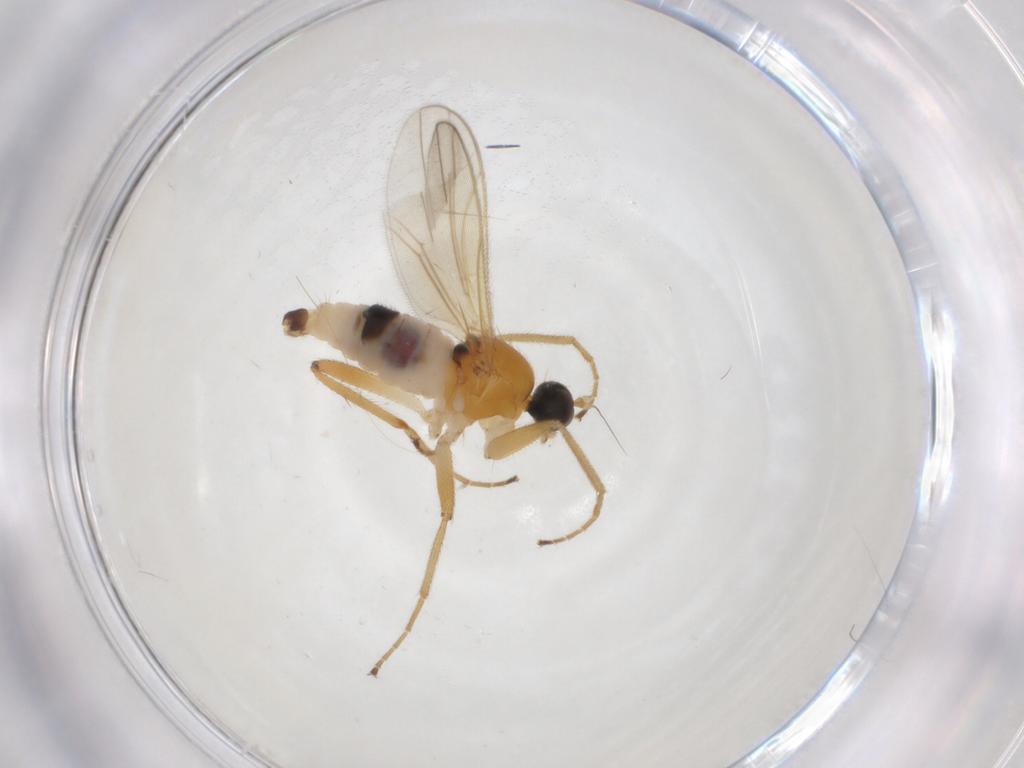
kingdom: Animalia
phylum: Arthropoda
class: Insecta
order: Diptera
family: Hybotidae
